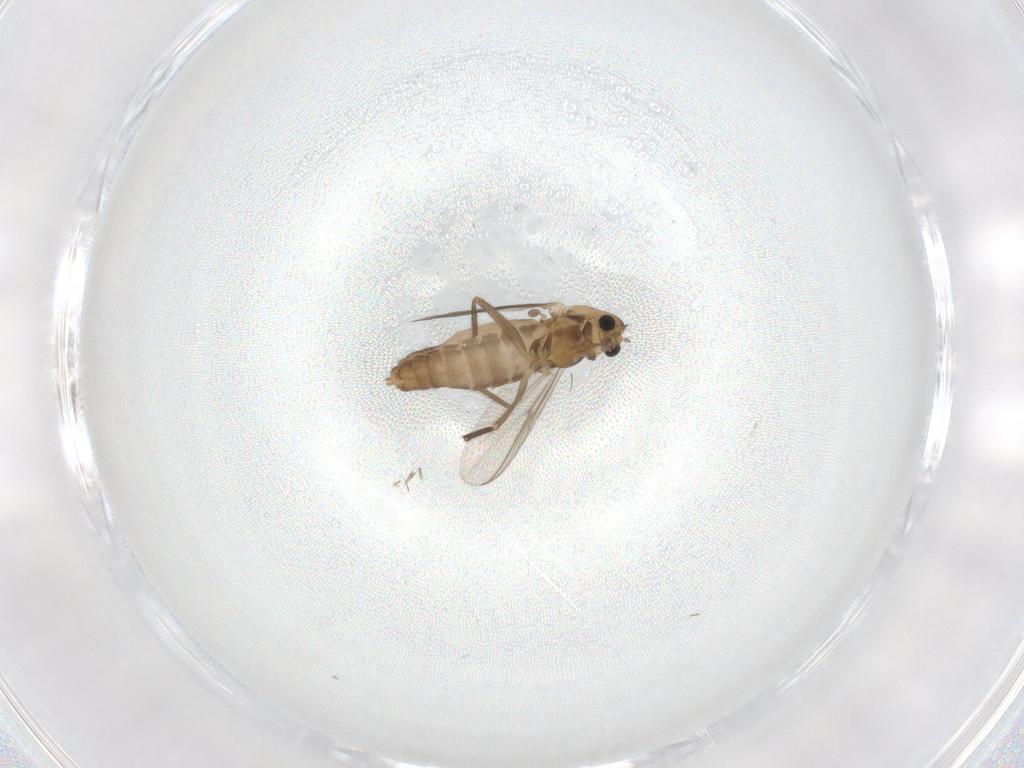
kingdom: Animalia
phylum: Arthropoda
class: Insecta
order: Diptera
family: Chironomidae
